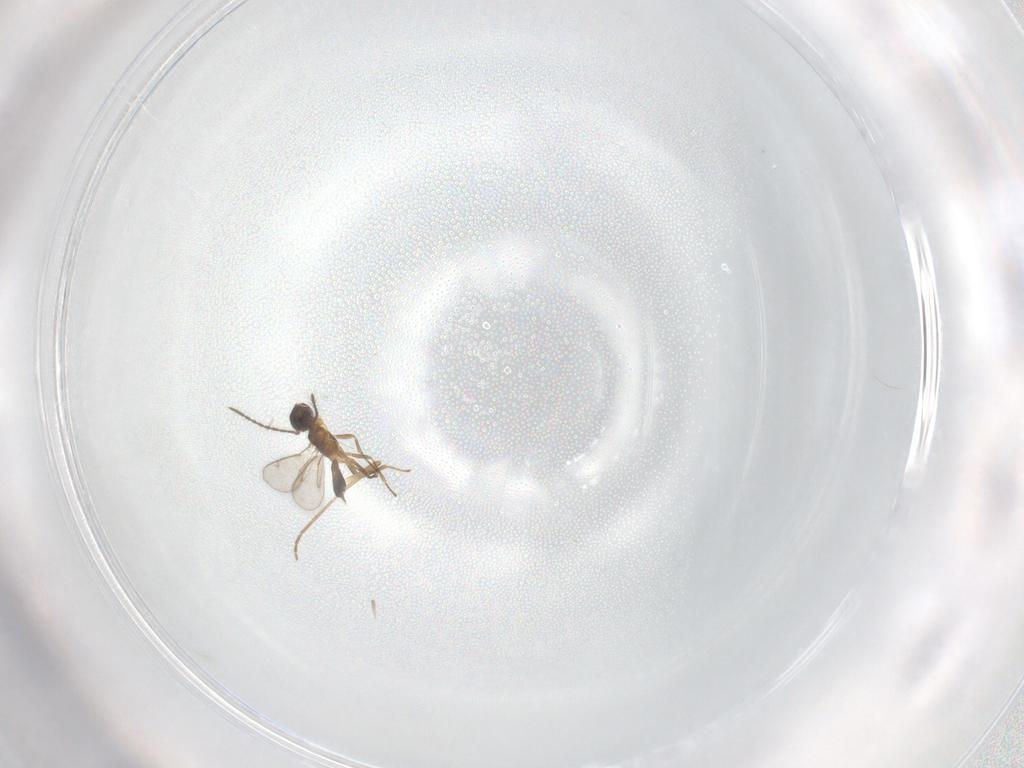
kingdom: Animalia
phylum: Arthropoda
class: Insecta
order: Hymenoptera
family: Eupelmidae
